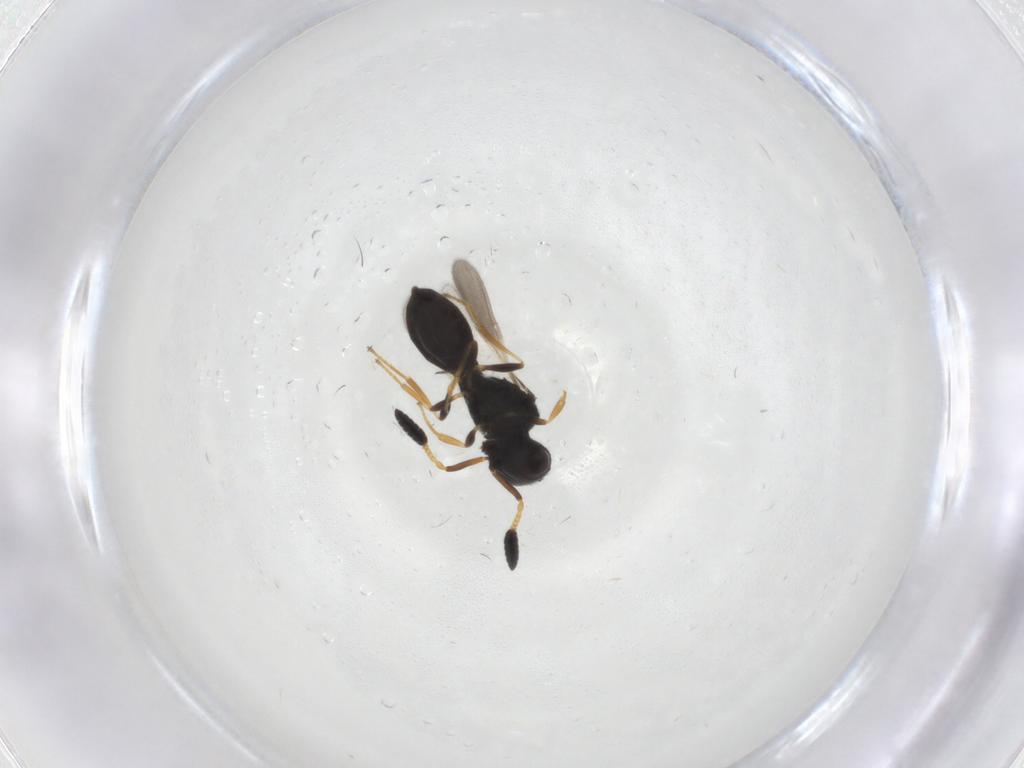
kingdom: Animalia
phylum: Arthropoda
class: Insecta
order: Hymenoptera
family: Scelionidae
